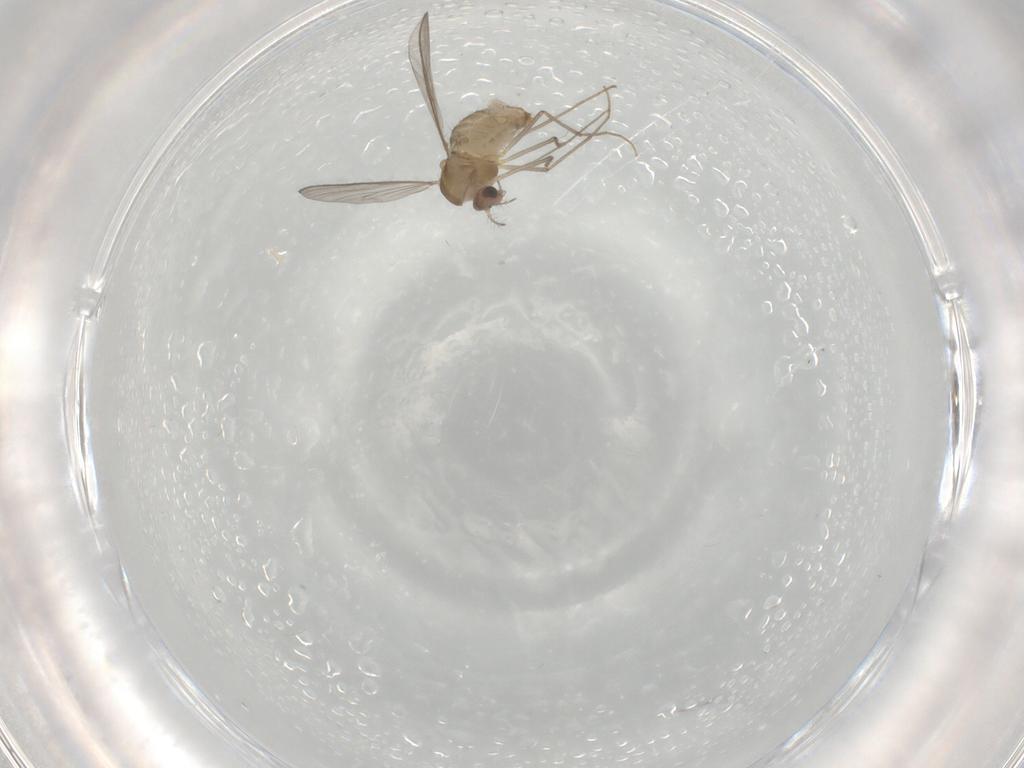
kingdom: Animalia
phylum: Arthropoda
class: Insecta
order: Diptera
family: Chironomidae
